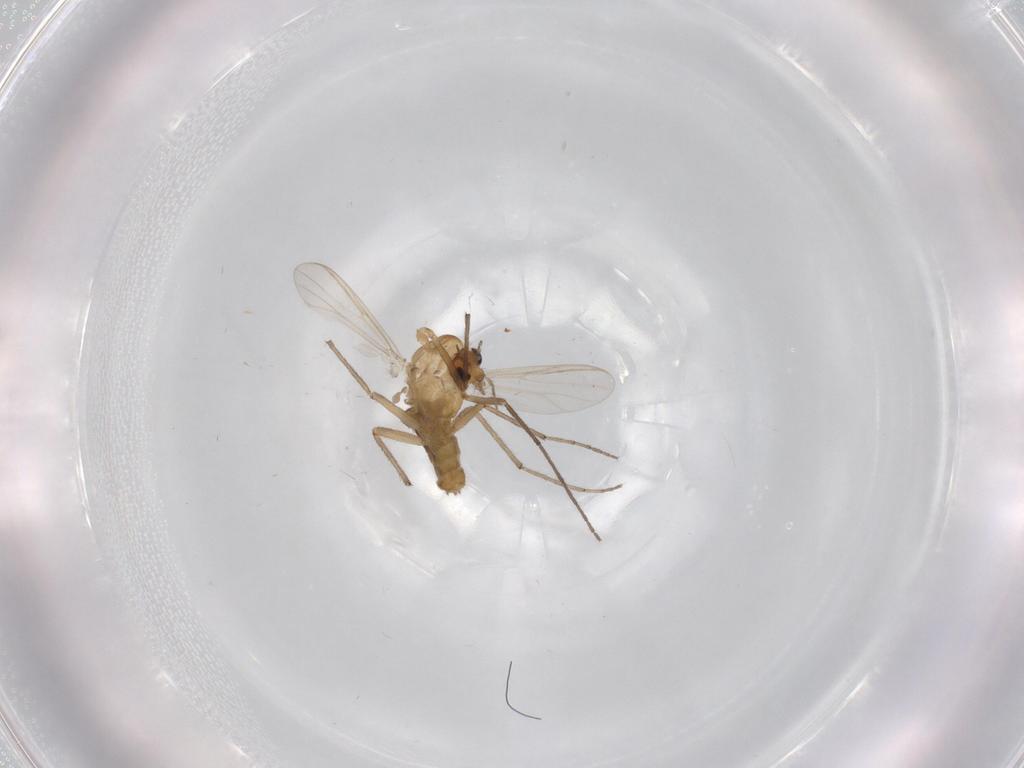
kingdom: Animalia
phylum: Arthropoda
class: Insecta
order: Diptera
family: Chironomidae
